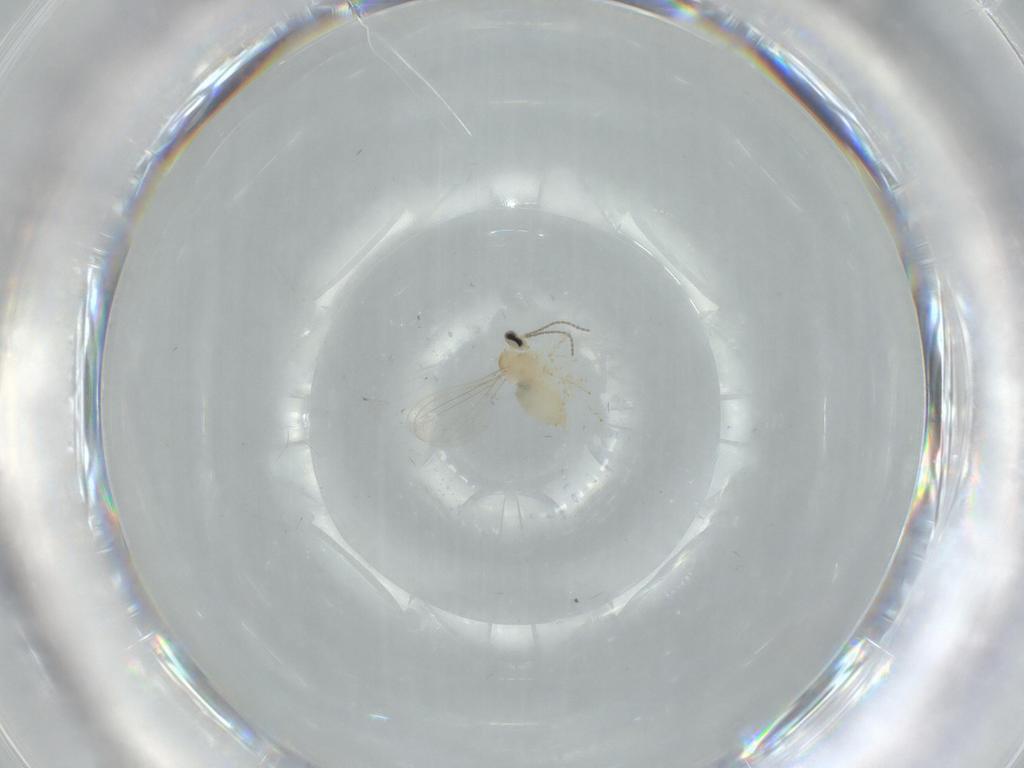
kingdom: Animalia
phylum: Arthropoda
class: Insecta
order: Diptera
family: Cecidomyiidae
